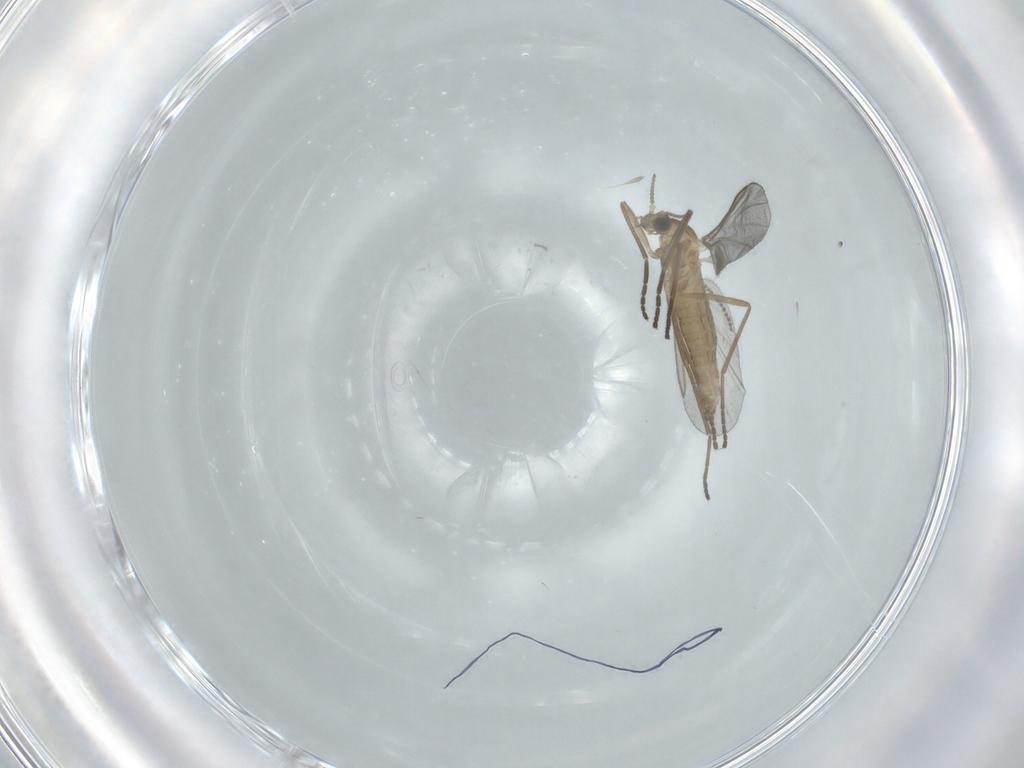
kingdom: Animalia
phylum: Arthropoda
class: Insecta
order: Diptera
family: Cecidomyiidae
